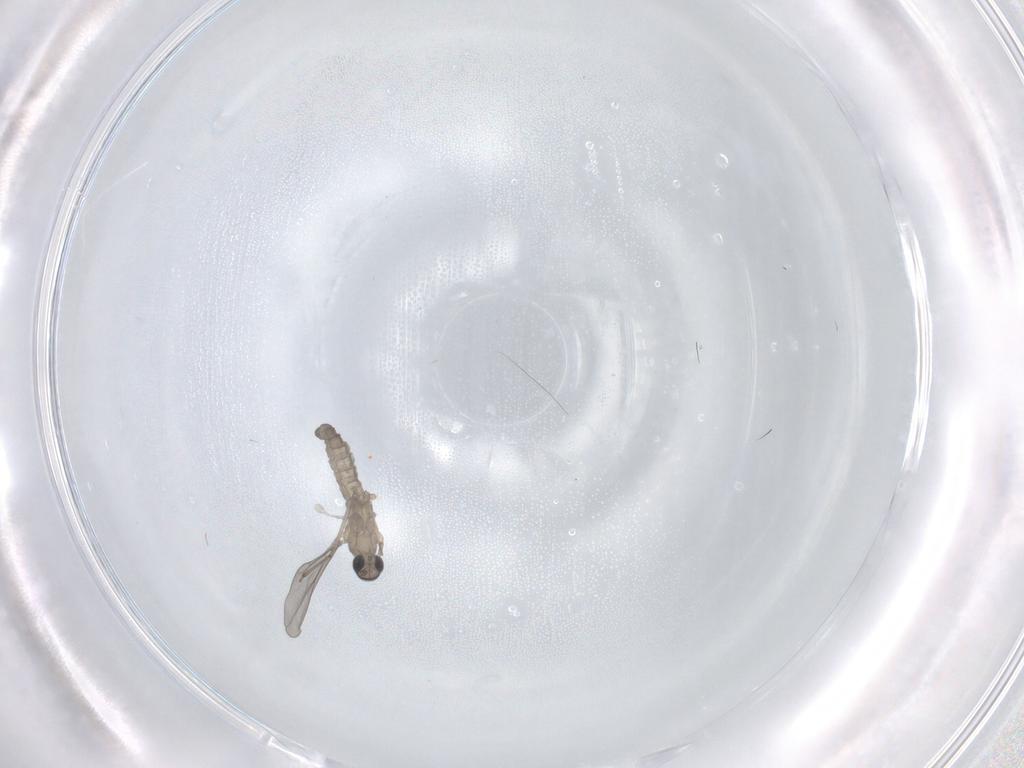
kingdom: Animalia
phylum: Arthropoda
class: Insecta
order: Diptera
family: Cecidomyiidae
